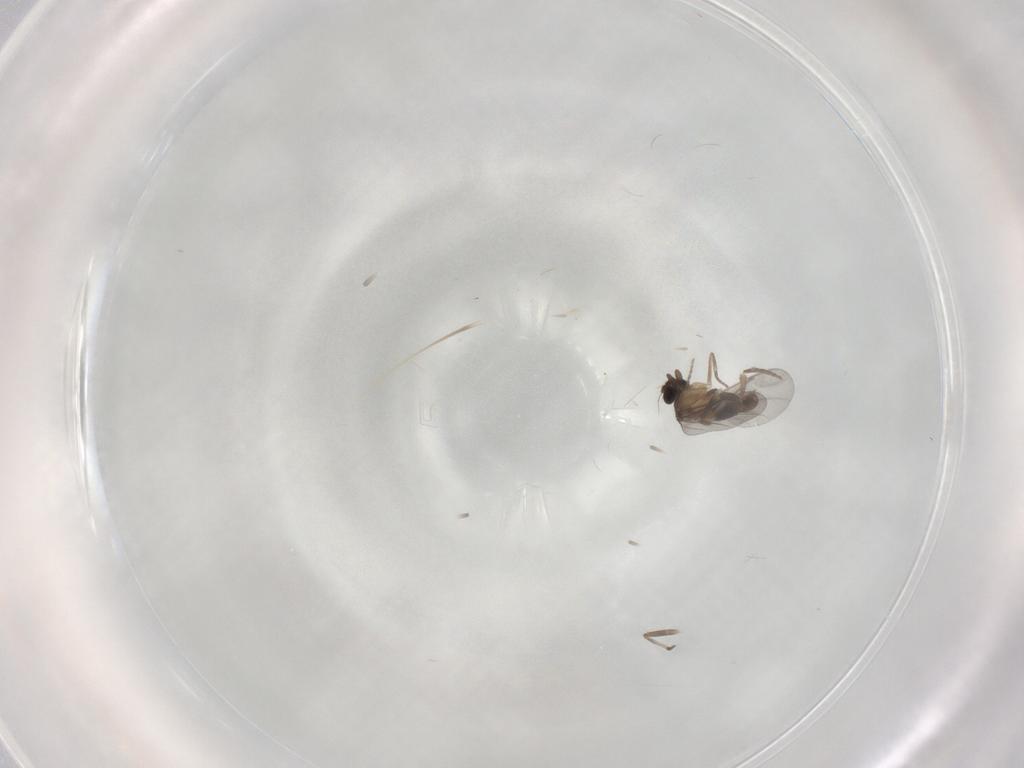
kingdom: Animalia
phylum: Arthropoda
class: Insecta
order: Diptera
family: Phoridae
